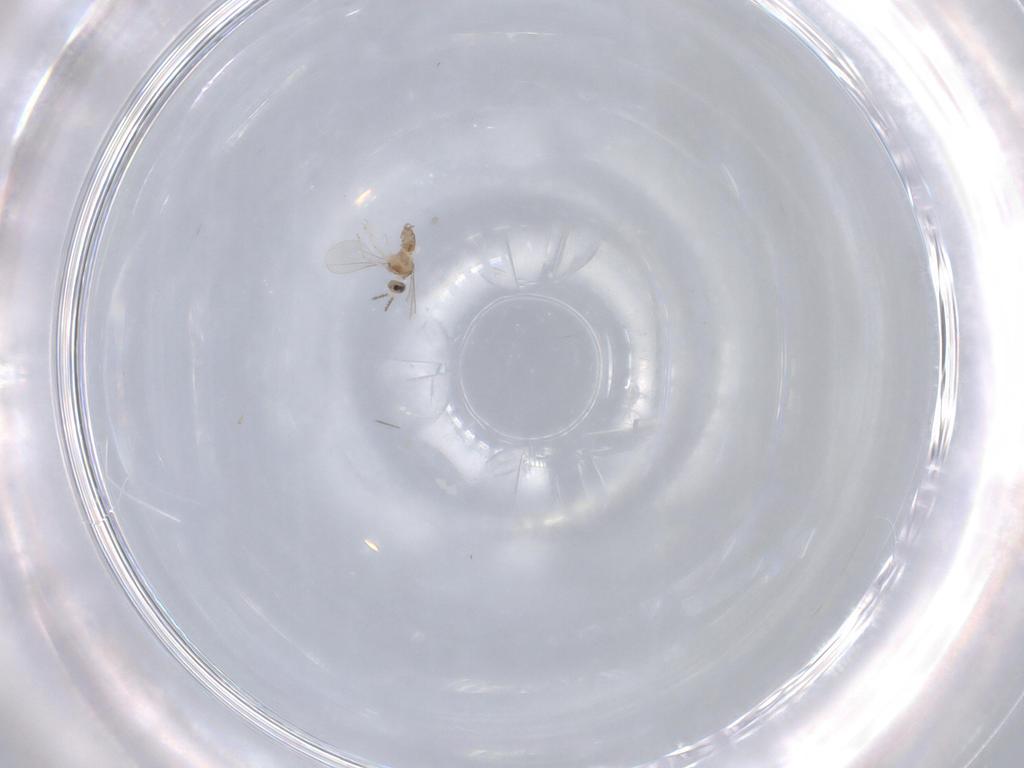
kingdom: Animalia
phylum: Arthropoda
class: Insecta
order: Diptera
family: Cecidomyiidae
